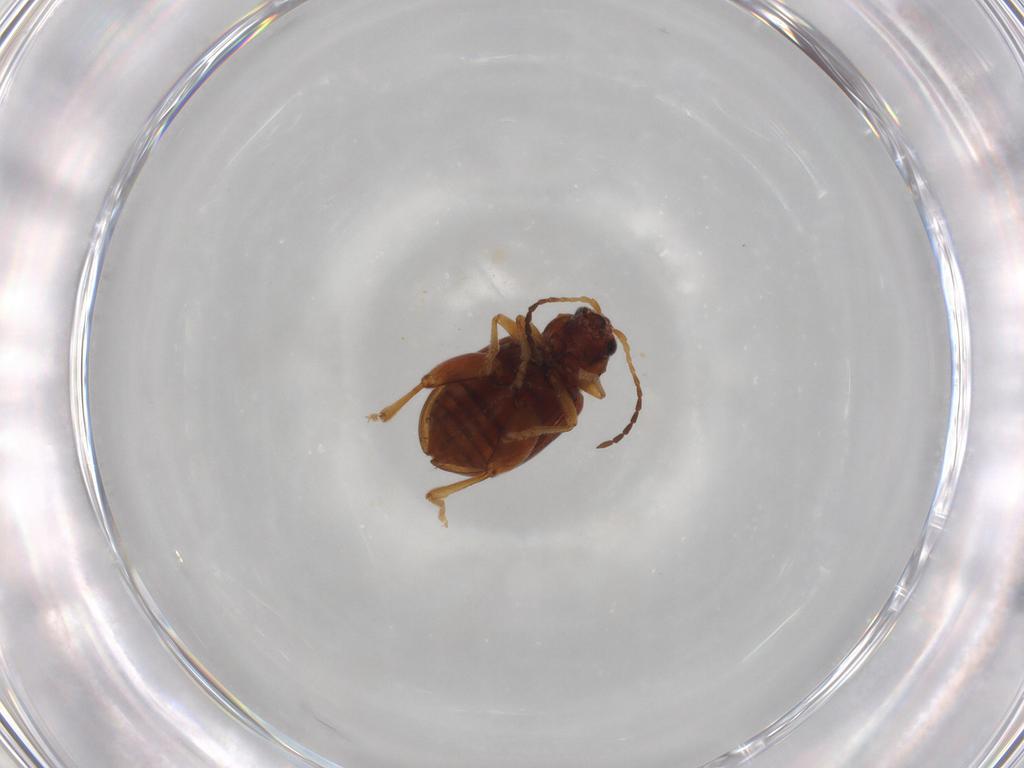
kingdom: Animalia
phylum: Arthropoda
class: Insecta
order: Coleoptera
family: Chrysomelidae
